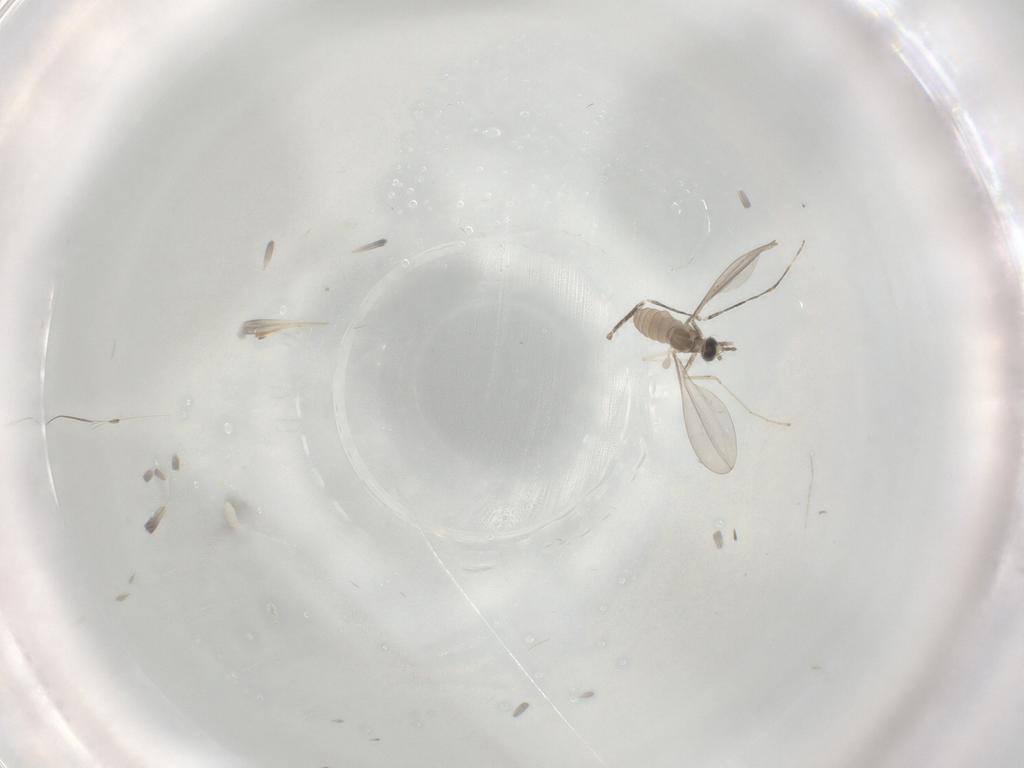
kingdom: Animalia
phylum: Arthropoda
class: Insecta
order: Diptera
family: Cecidomyiidae
